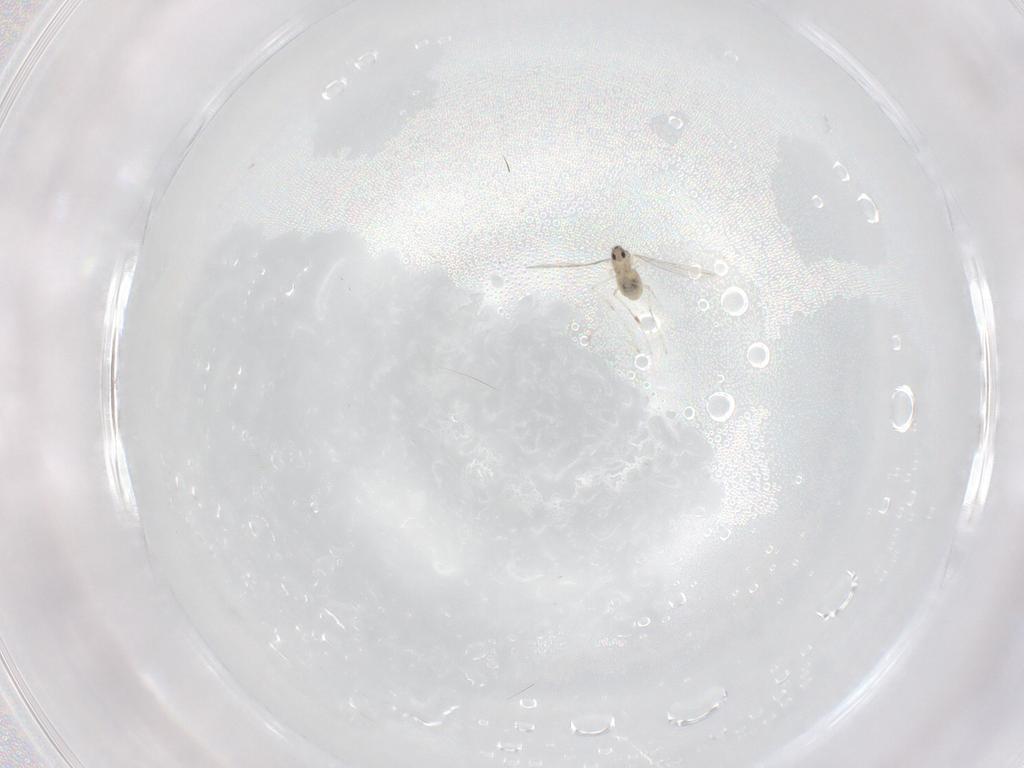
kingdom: Animalia
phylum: Arthropoda
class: Insecta
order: Diptera
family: Cecidomyiidae
